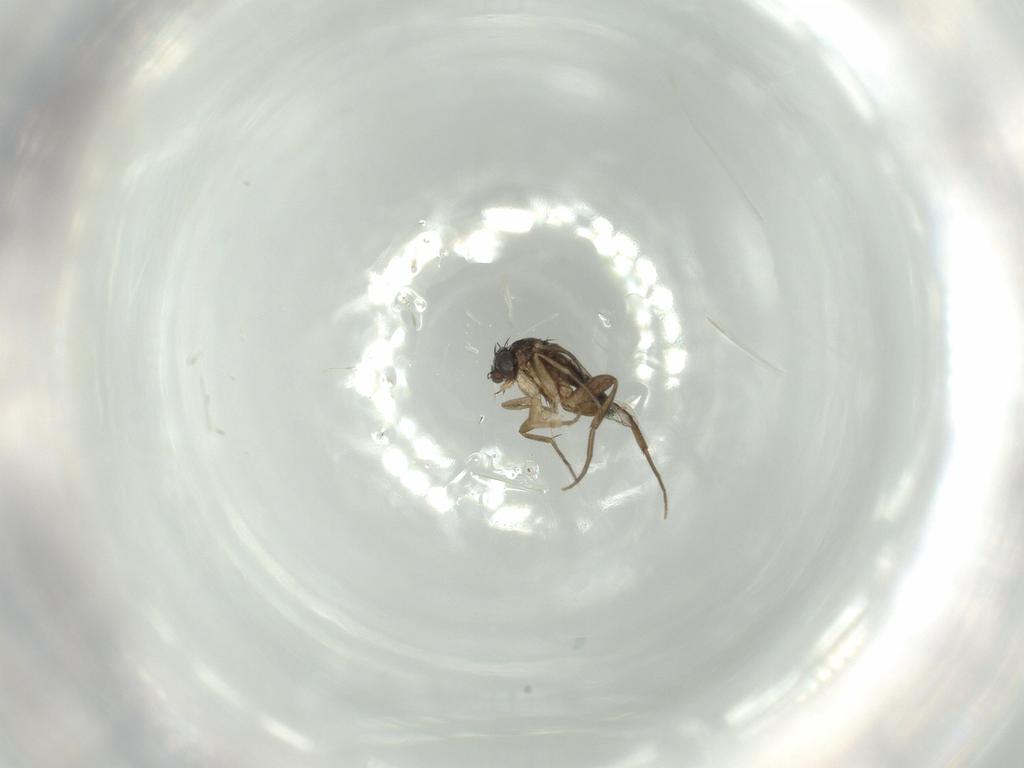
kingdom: Animalia
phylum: Arthropoda
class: Insecta
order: Diptera
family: Phoridae
